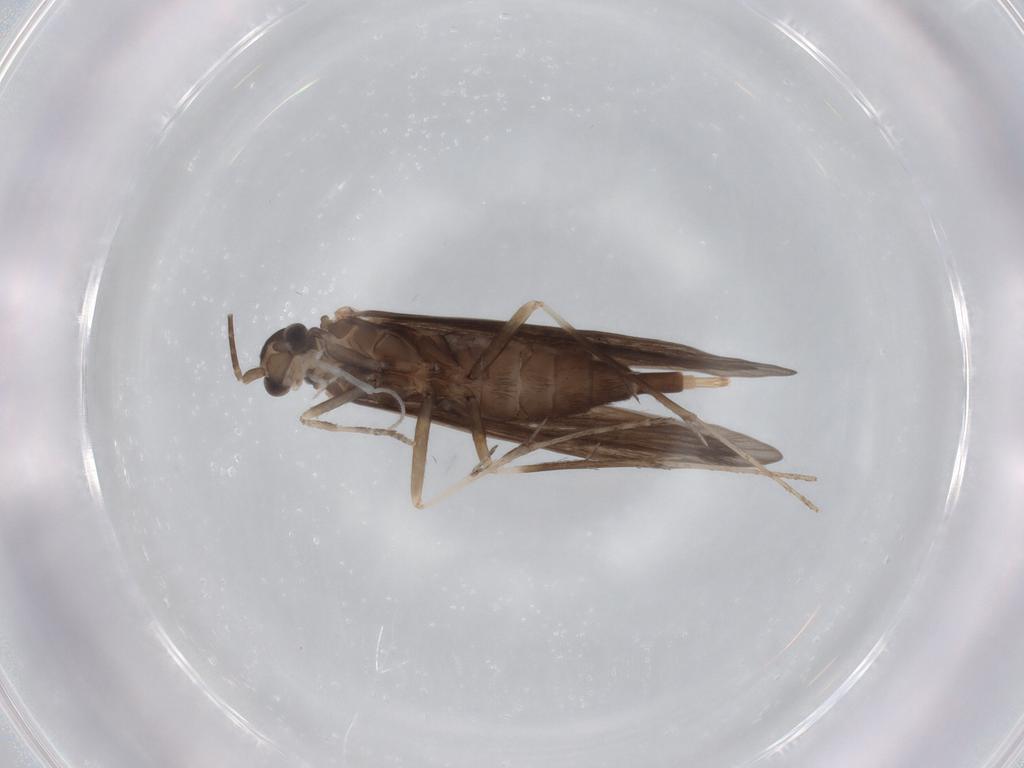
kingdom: Animalia
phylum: Arthropoda
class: Insecta
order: Trichoptera
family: Xiphocentronidae
